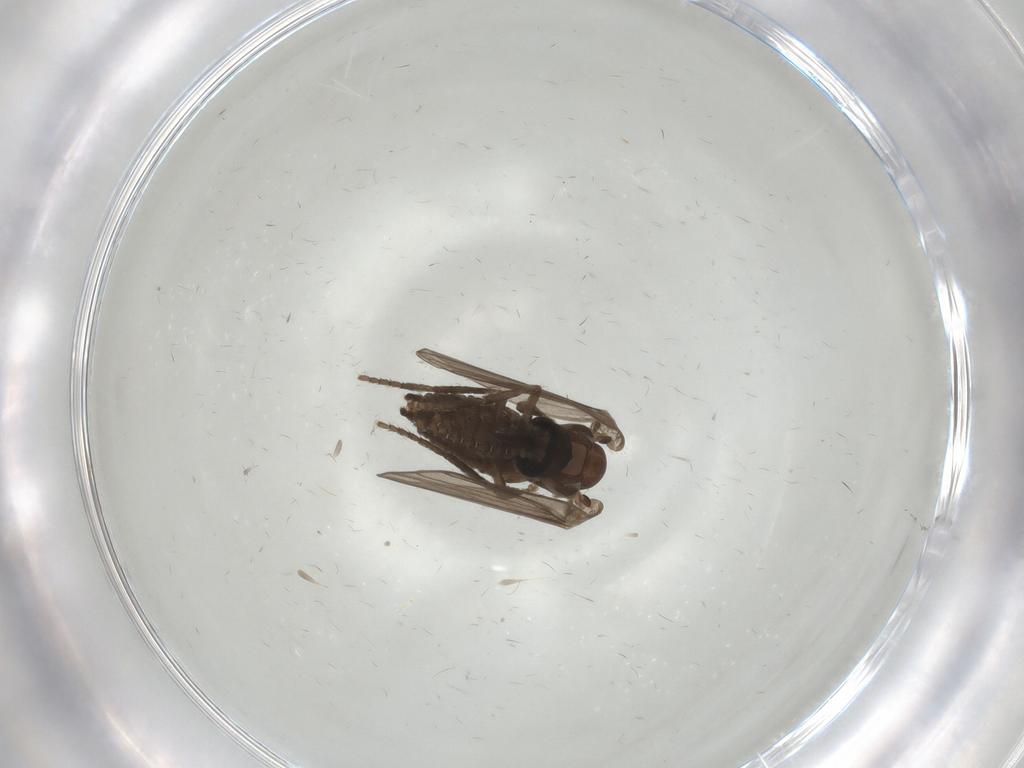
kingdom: Animalia
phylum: Arthropoda
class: Insecta
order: Diptera
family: Psychodidae
